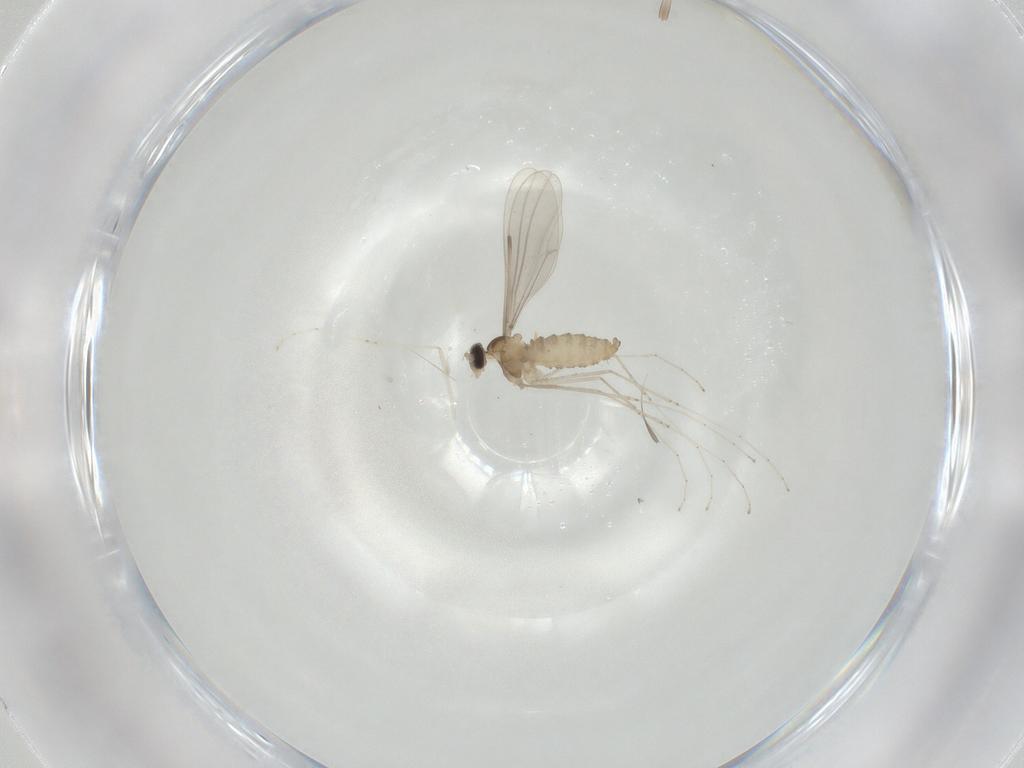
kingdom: Animalia
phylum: Arthropoda
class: Insecta
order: Diptera
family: Cecidomyiidae
